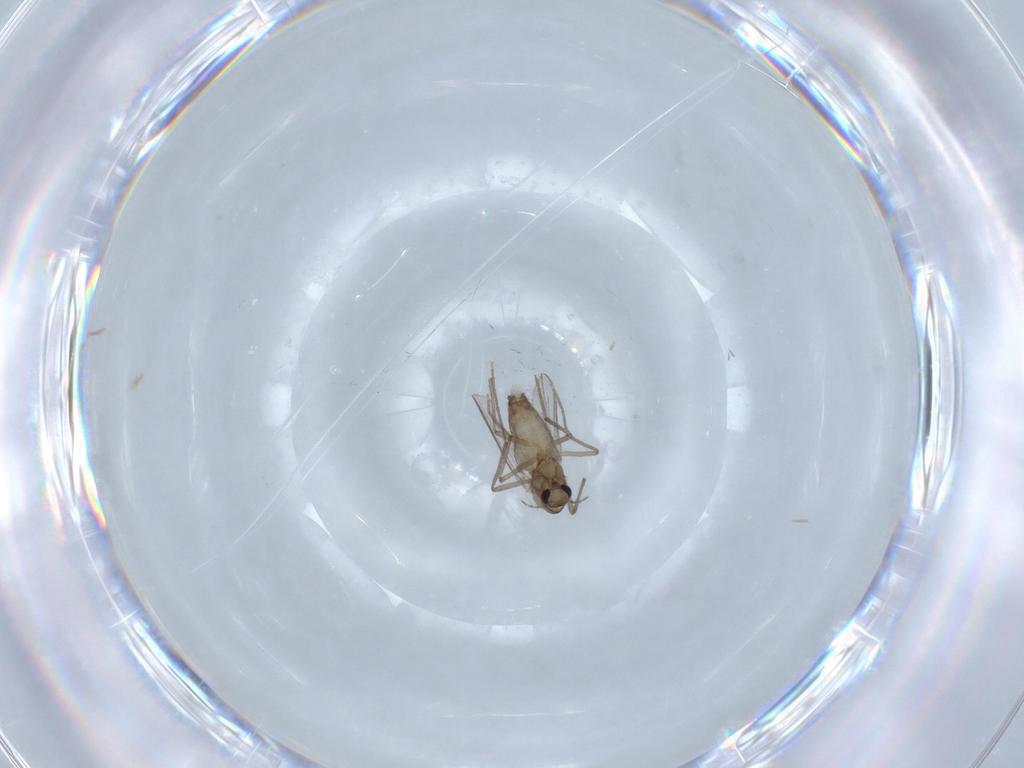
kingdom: Animalia
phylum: Arthropoda
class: Insecta
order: Diptera
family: Chironomidae
